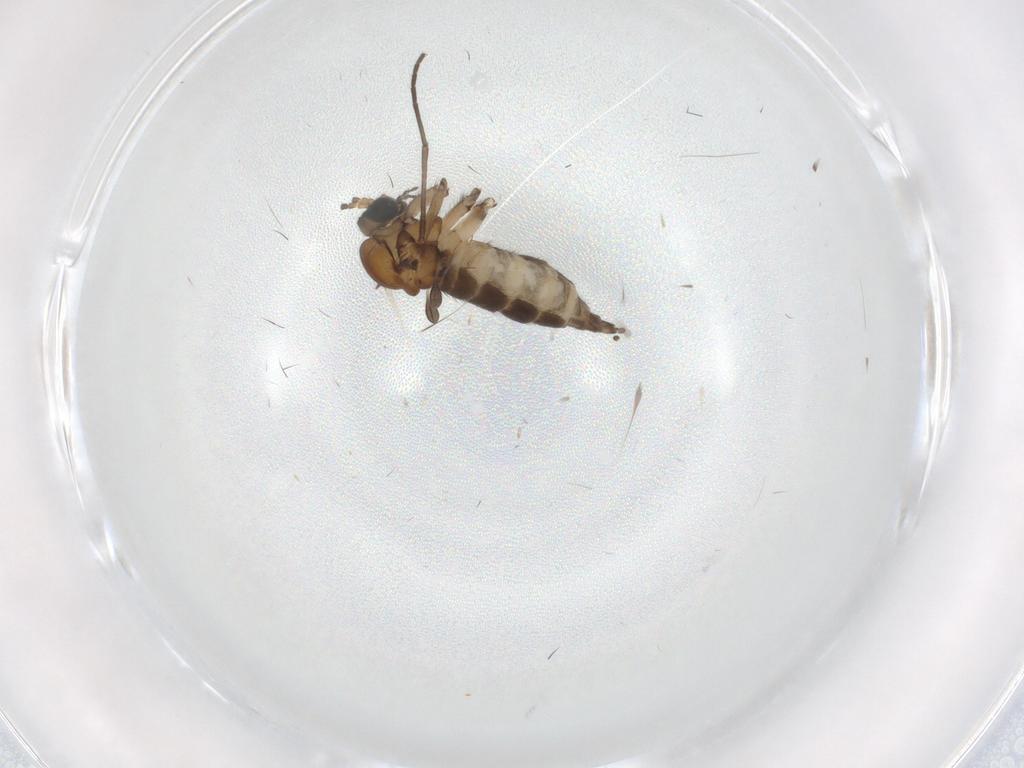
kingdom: Animalia
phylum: Arthropoda
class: Insecta
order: Diptera
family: Sciaridae
